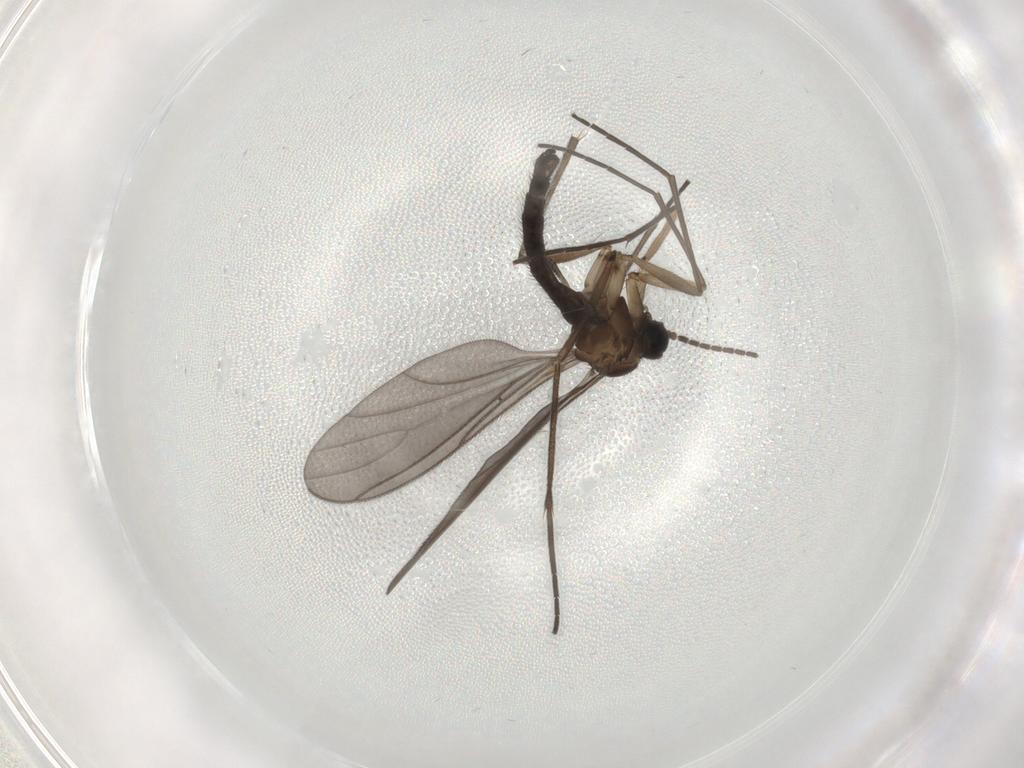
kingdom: Animalia
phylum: Arthropoda
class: Insecta
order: Diptera
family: Sciaridae
